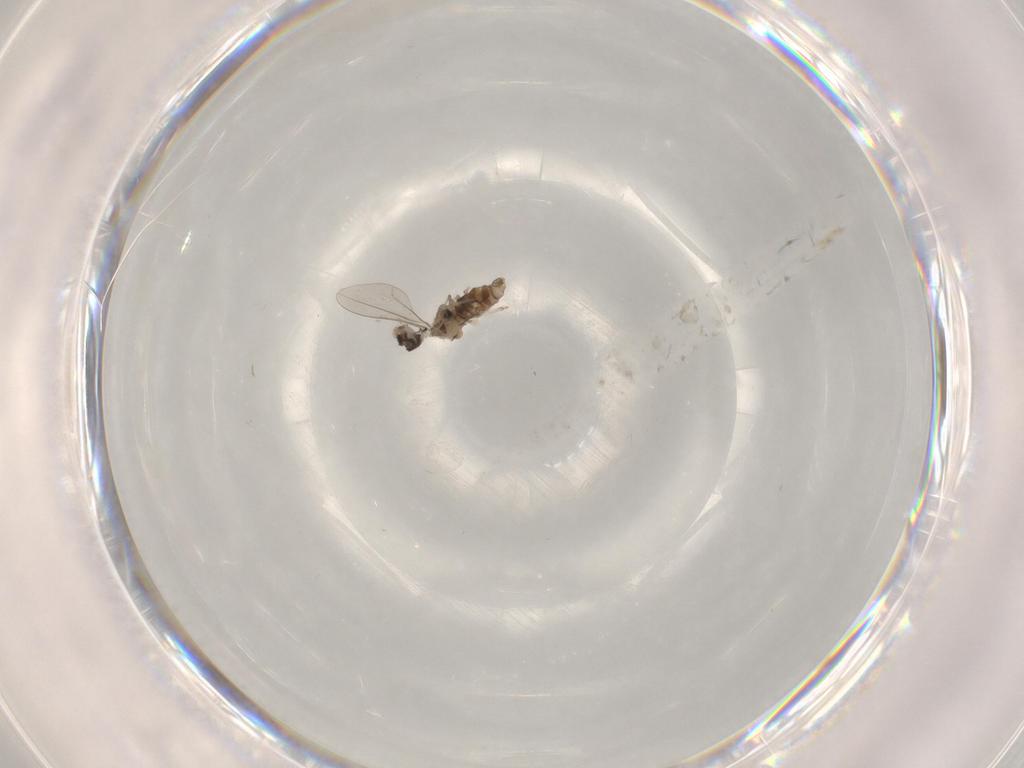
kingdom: Animalia
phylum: Arthropoda
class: Insecta
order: Diptera
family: Cecidomyiidae
